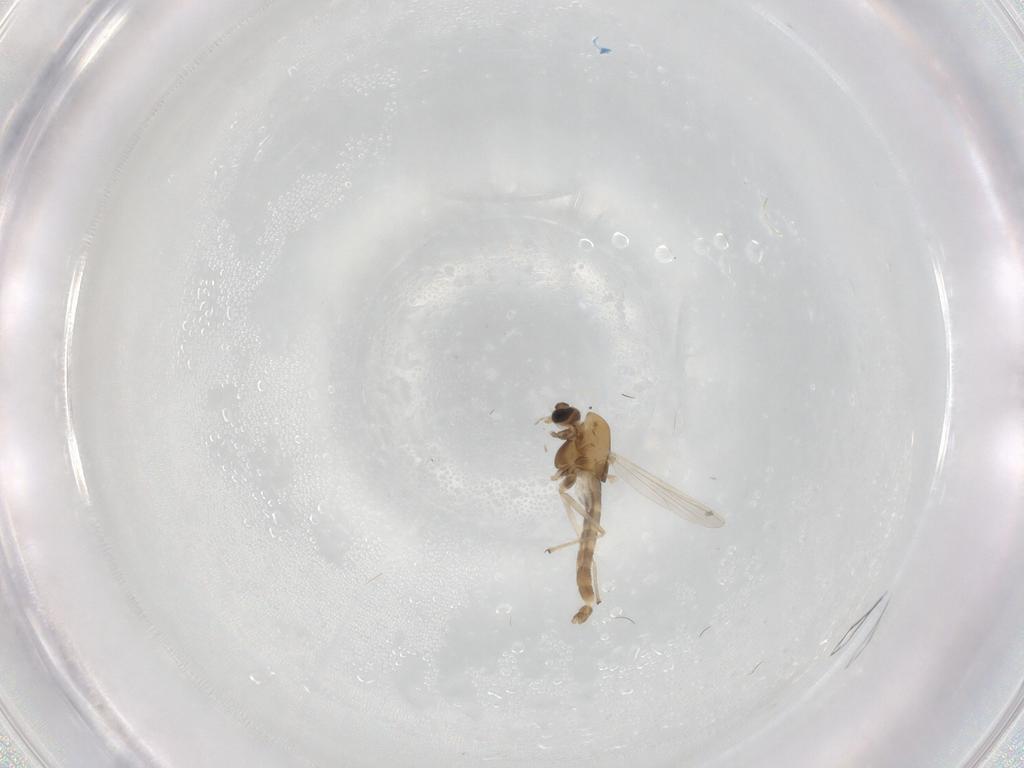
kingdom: Animalia
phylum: Arthropoda
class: Insecta
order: Diptera
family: Chironomidae
